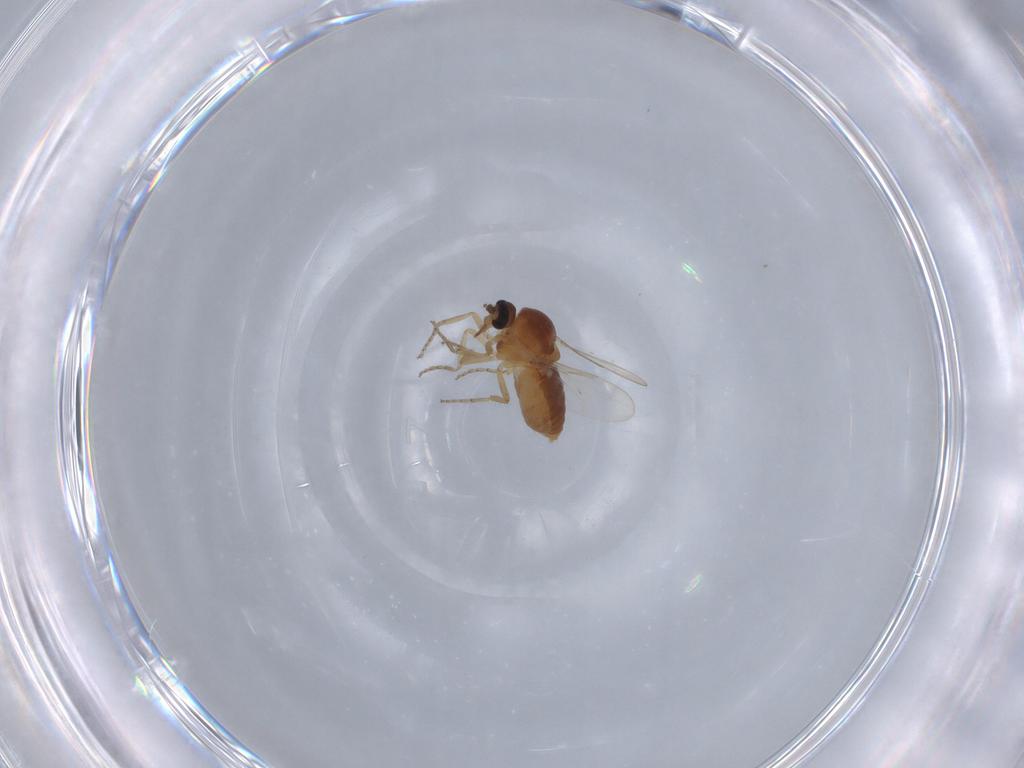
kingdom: Animalia
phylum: Arthropoda
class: Insecta
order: Diptera
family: Ceratopogonidae
